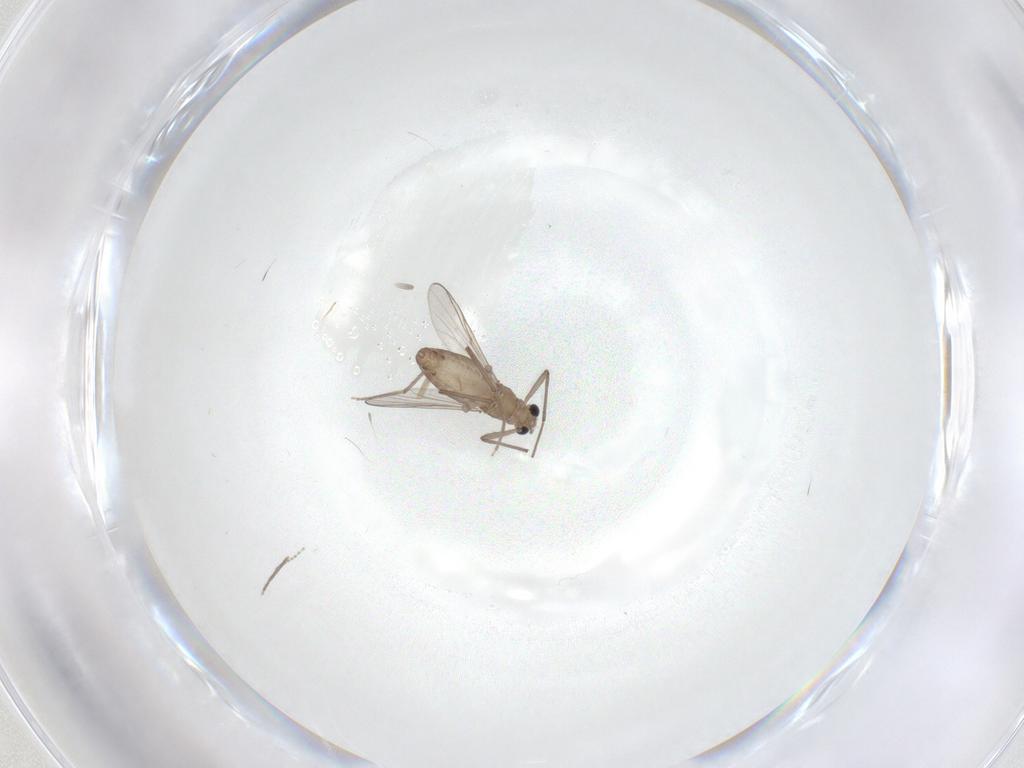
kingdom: Animalia
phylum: Arthropoda
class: Insecta
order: Diptera
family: Chironomidae
